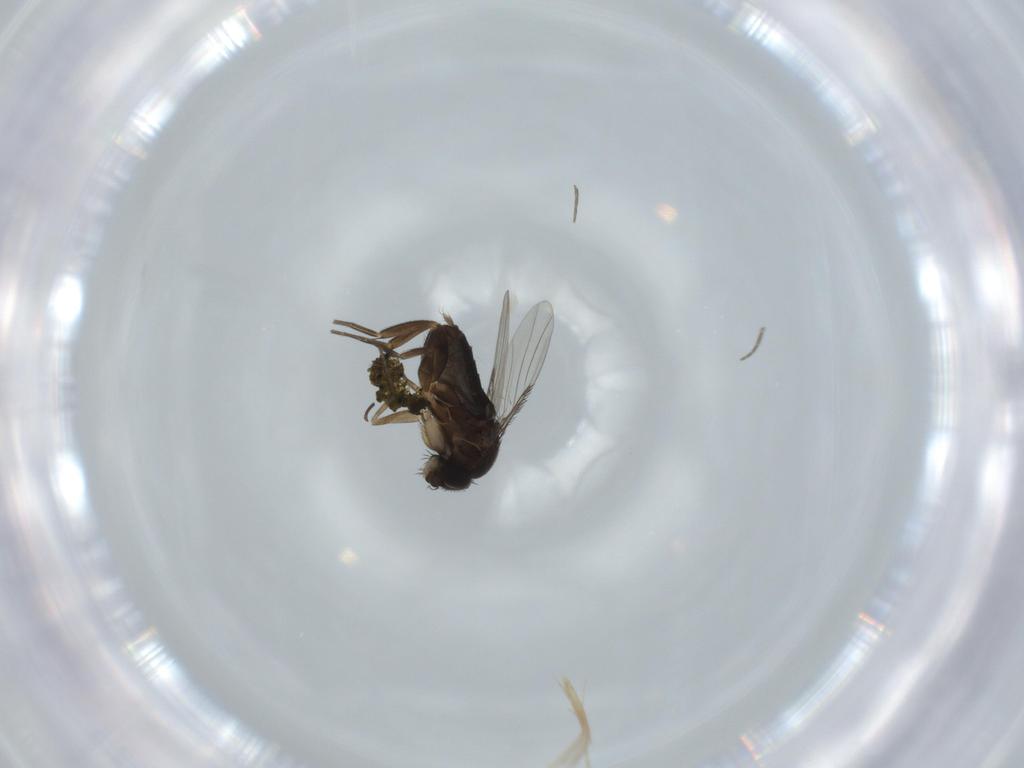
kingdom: Animalia
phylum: Arthropoda
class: Insecta
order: Diptera
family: Phoridae
